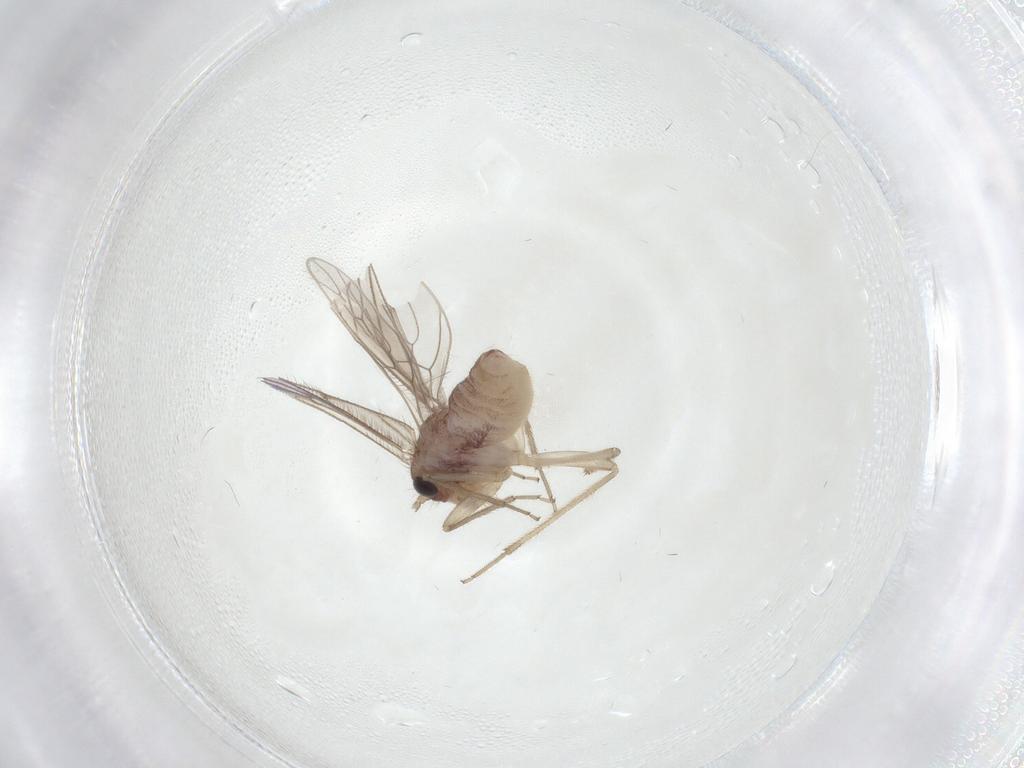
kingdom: Animalia
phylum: Arthropoda
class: Insecta
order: Psocodea
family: Cladiopsocidae
